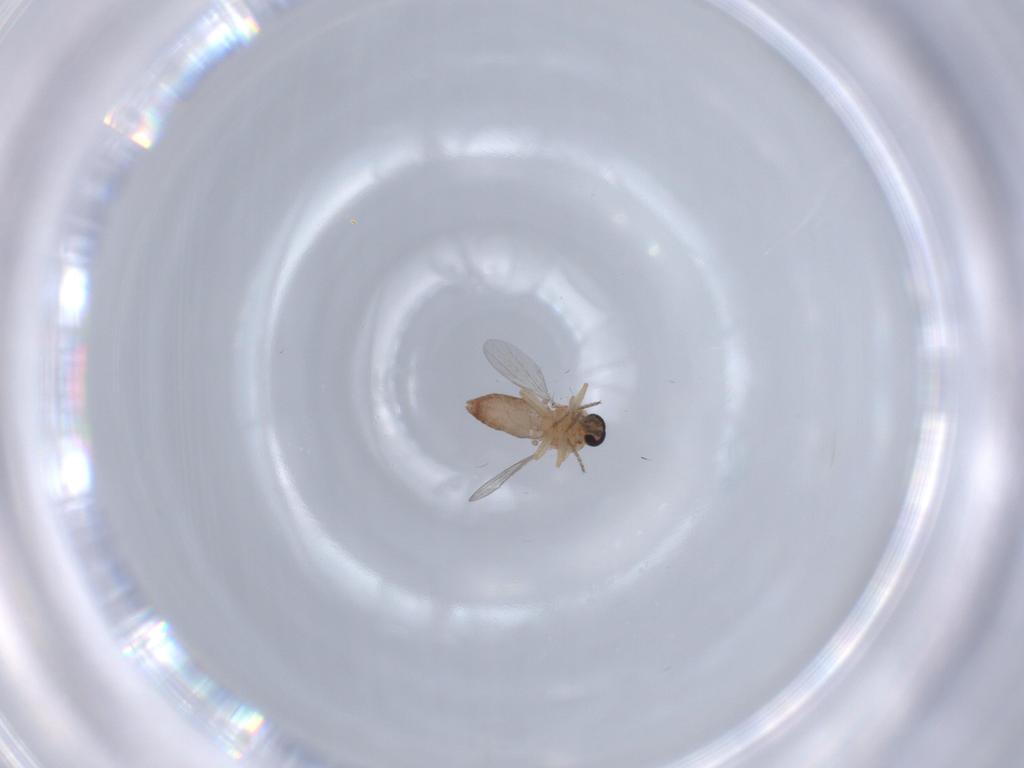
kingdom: Animalia
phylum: Arthropoda
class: Insecta
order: Diptera
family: Ceratopogonidae
